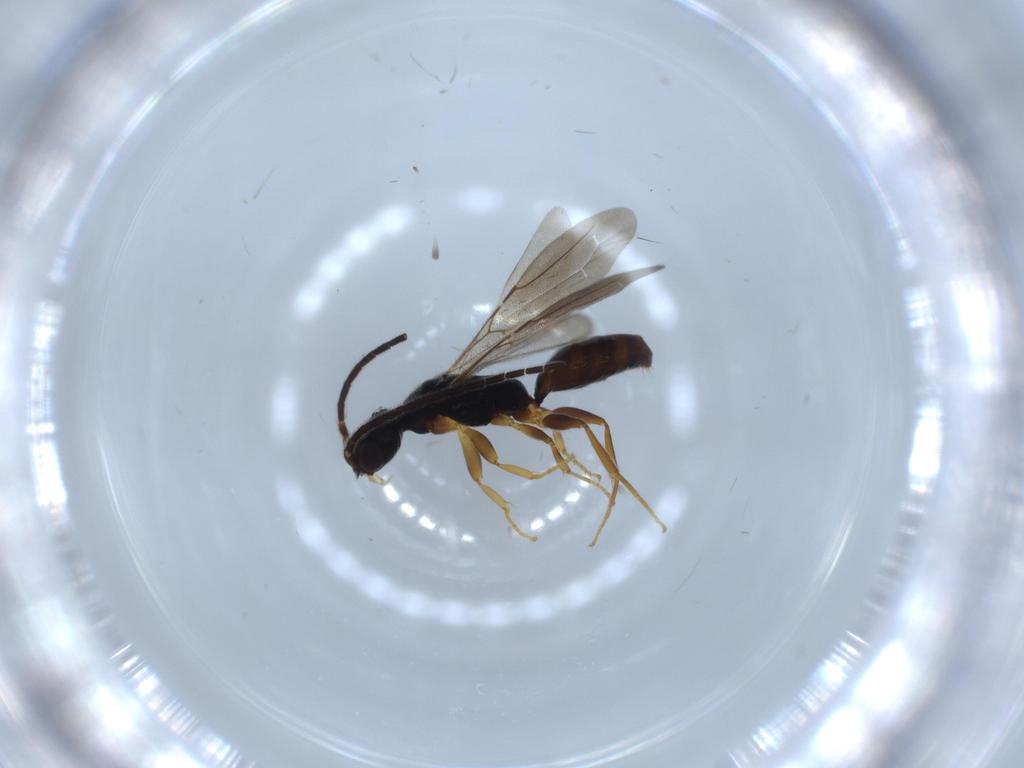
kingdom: Animalia
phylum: Arthropoda
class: Insecta
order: Hymenoptera
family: Bethylidae
